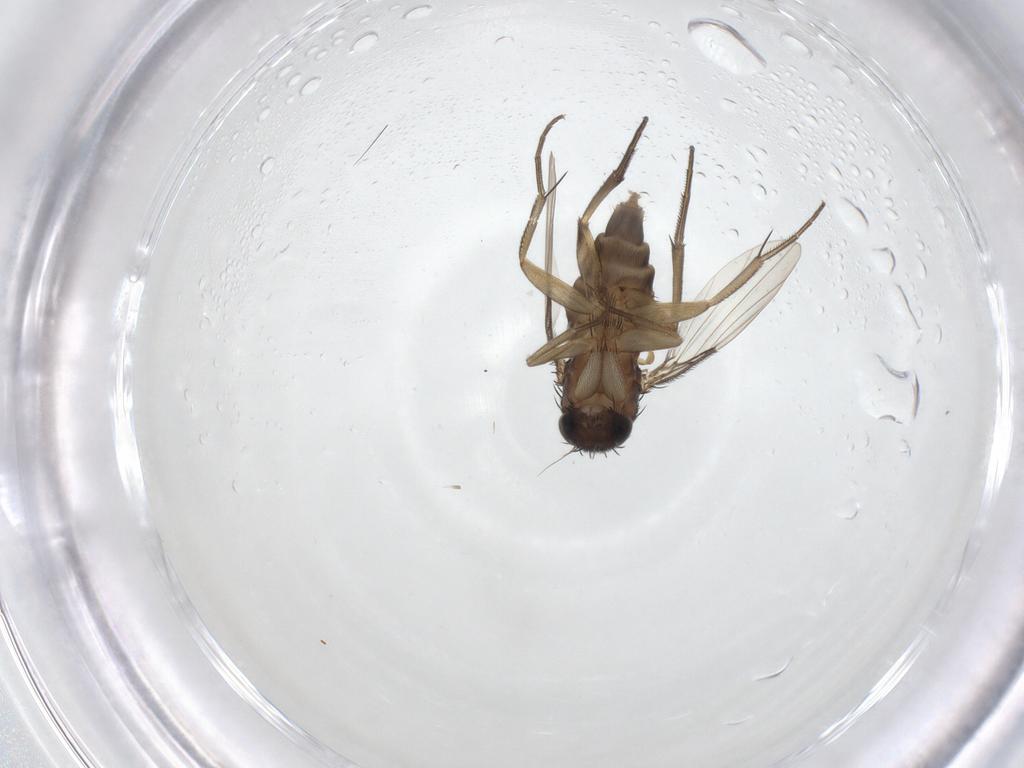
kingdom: Animalia
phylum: Arthropoda
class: Insecta
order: Diptera
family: Phoridae
